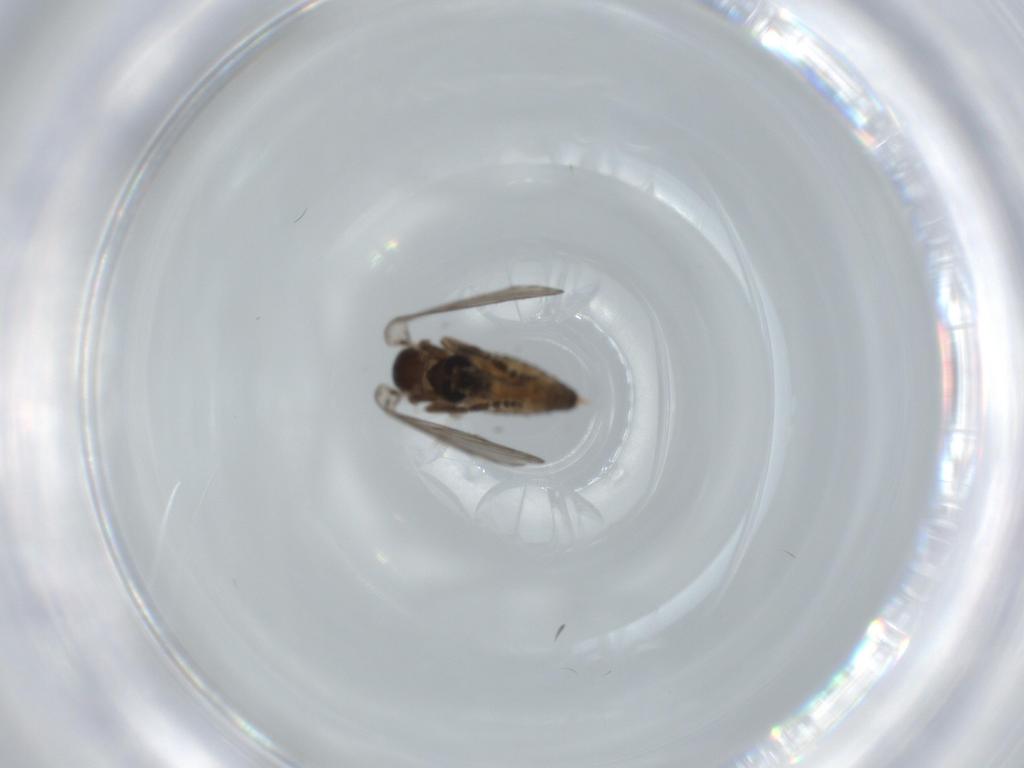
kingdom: Animalia
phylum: Arthropoda
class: Insecta
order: Diptera
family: Psychodidae
